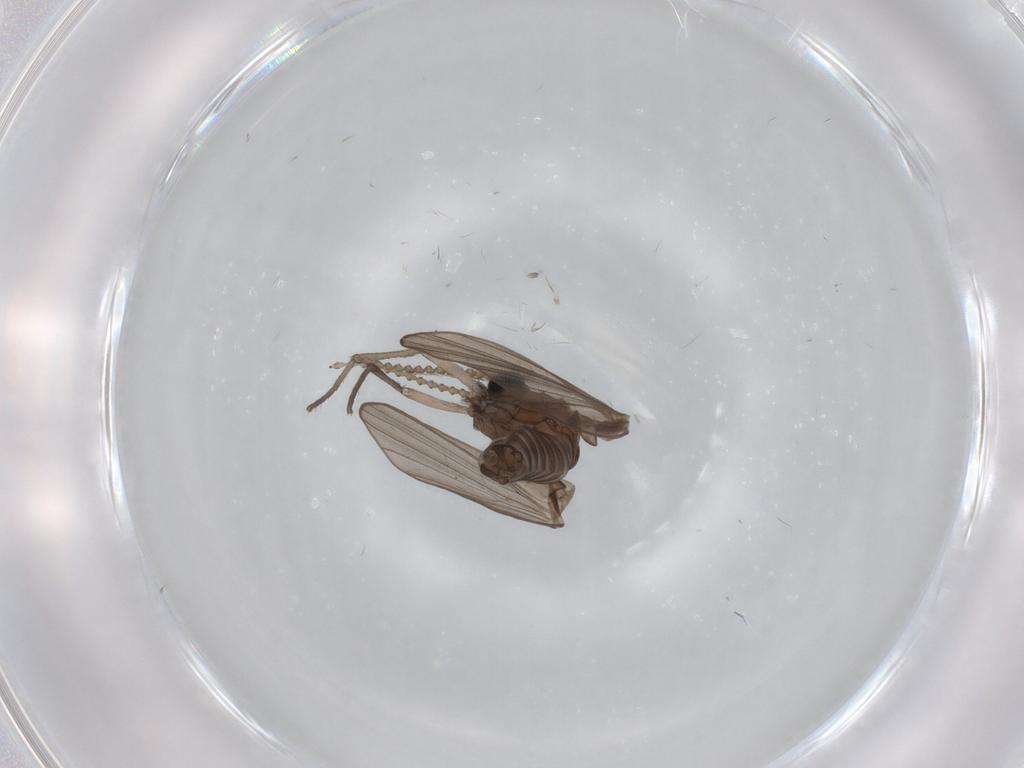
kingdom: Animalia
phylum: Arthropoda
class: Insecta
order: Diptera
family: Psychodidae
